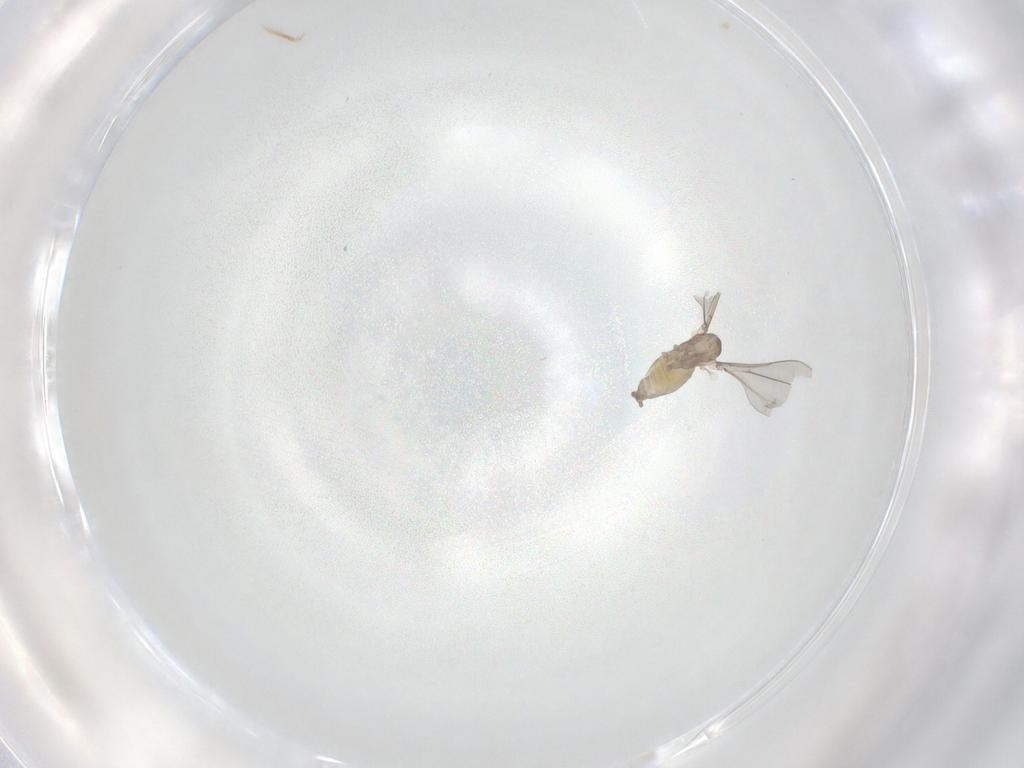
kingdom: Animalia
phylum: Arthropoda
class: Insecta
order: Diptera
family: Cecidomyiidae
